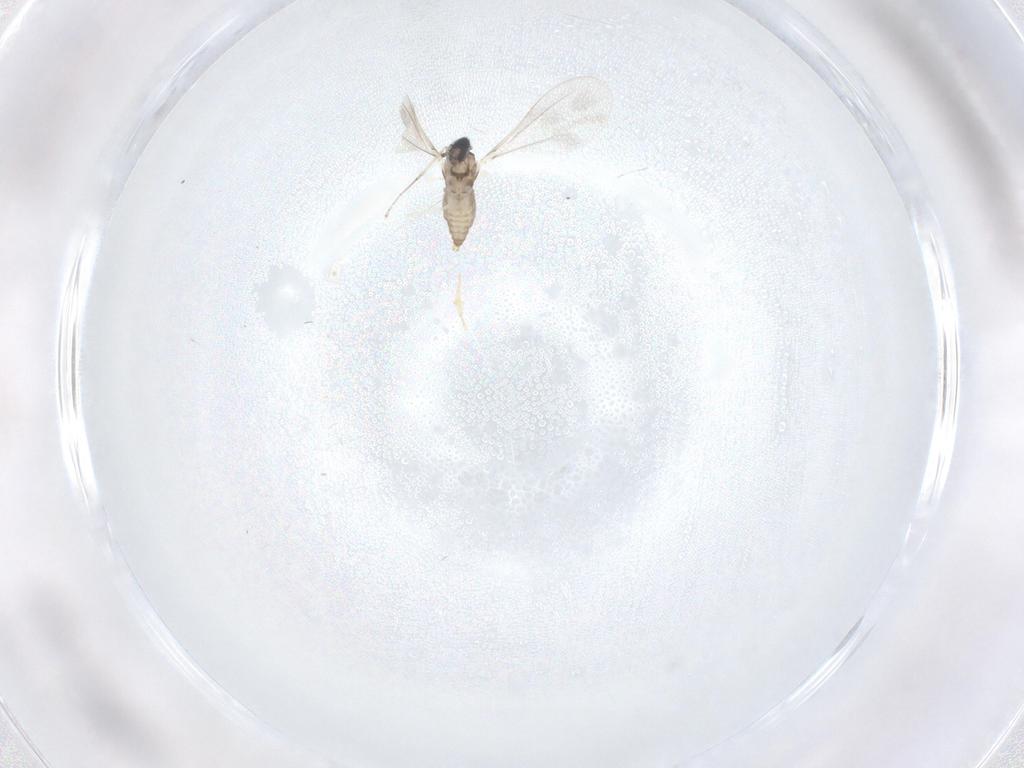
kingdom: Animalia
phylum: Arthropoda
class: Insecta
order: Diptera
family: Cecidomyiidae
